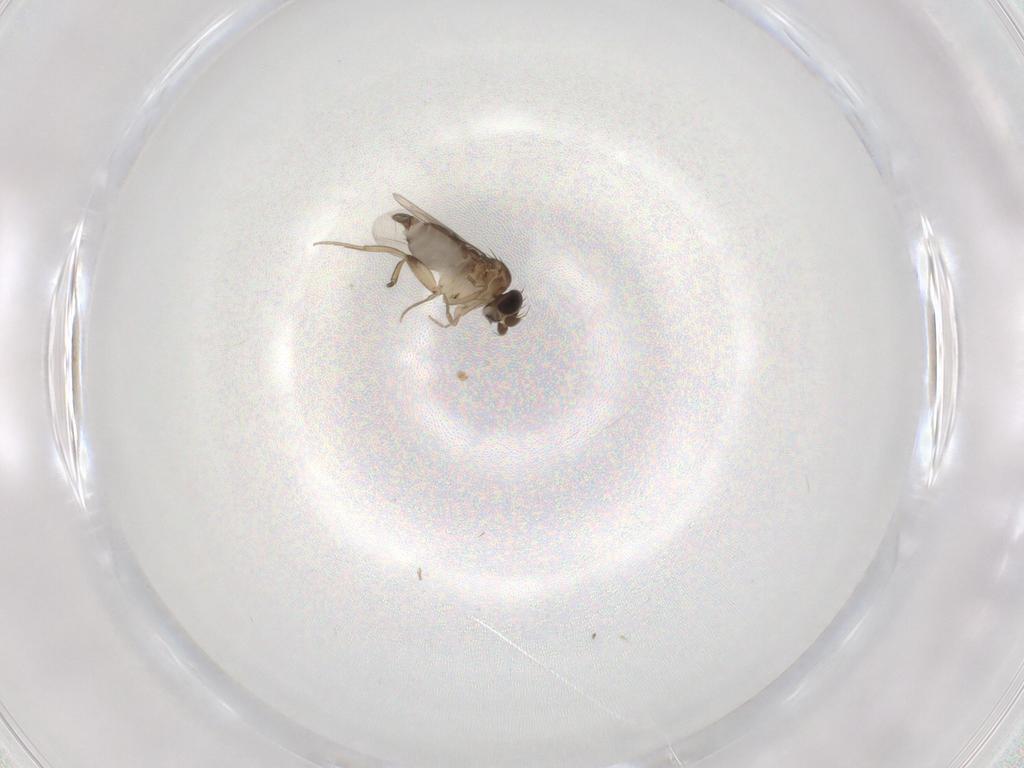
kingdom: Animalia
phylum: Arthropoda
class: Insecta
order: Diptera
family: Phoridae
